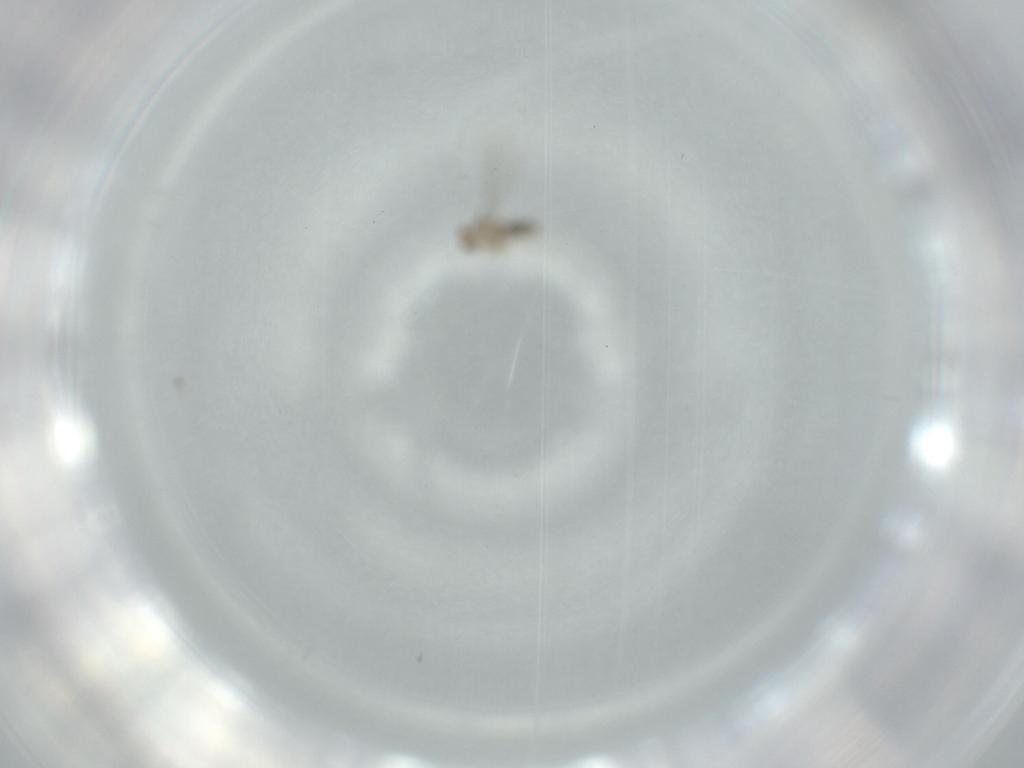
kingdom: Animalia
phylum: Arthropoda
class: Insecta
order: Diptera
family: Cecidomyiidae
